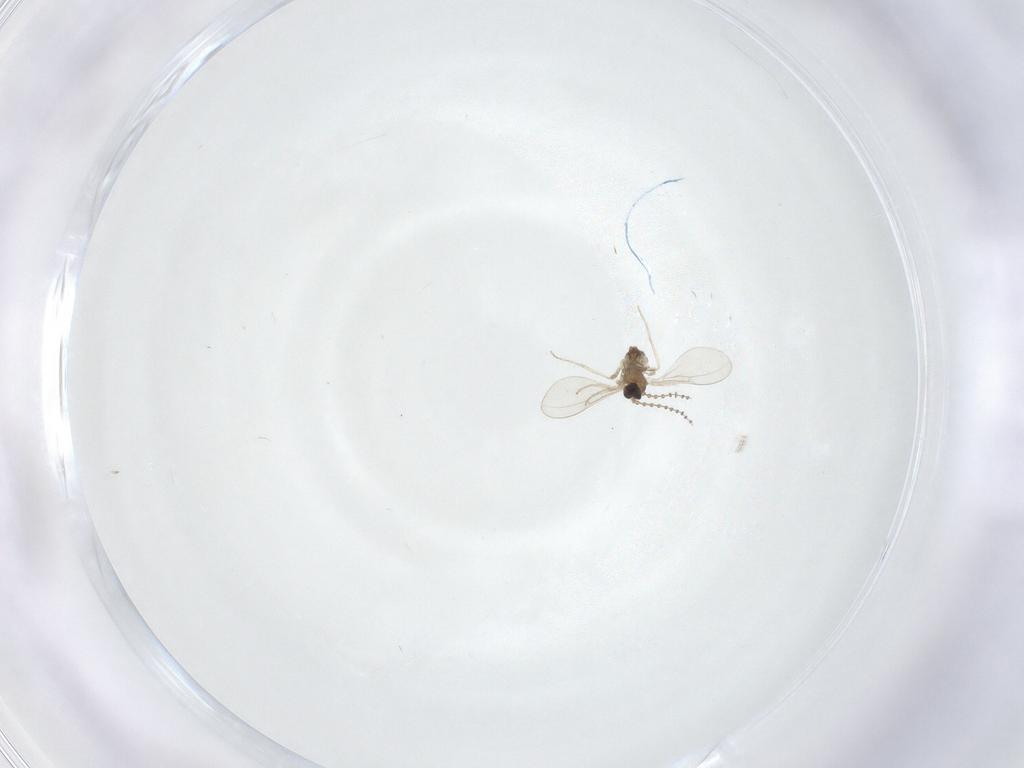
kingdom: Animalia
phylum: Arthropoda
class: Insecta
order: Diptera
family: Cecidomyiidae
